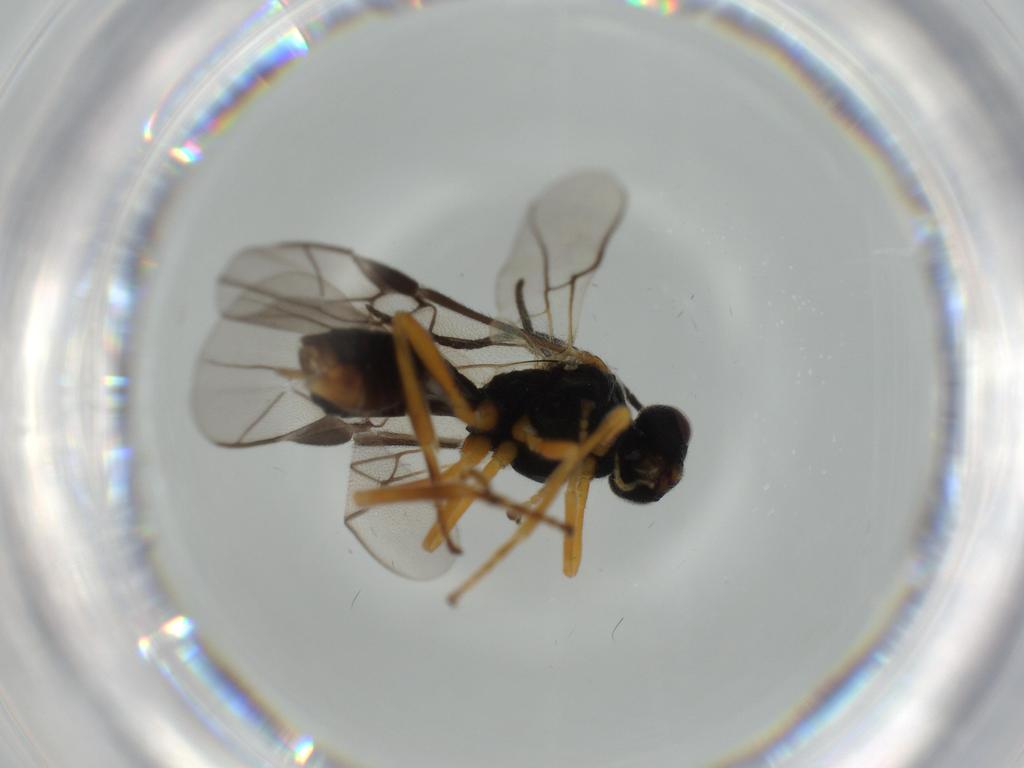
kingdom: Animalia
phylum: Arthropoda
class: Insecta
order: Hymenoptera
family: Braconidae
